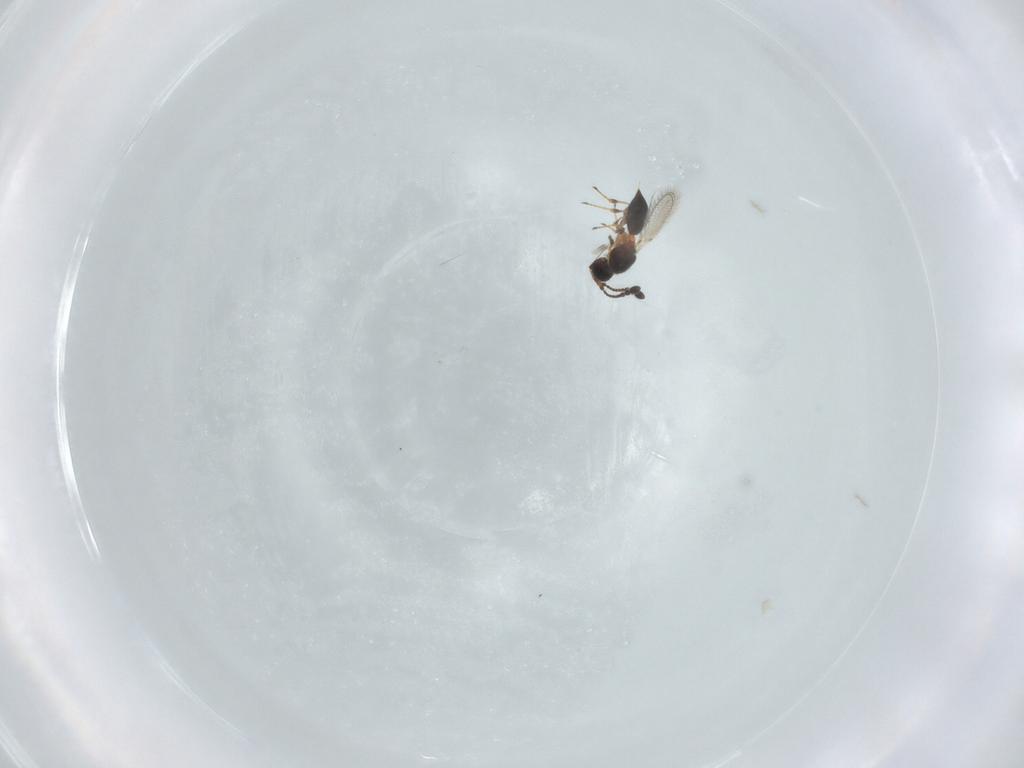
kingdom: Animalia
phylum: Arthropoda
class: Insecta
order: Hymenoptera
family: Diapriidae
